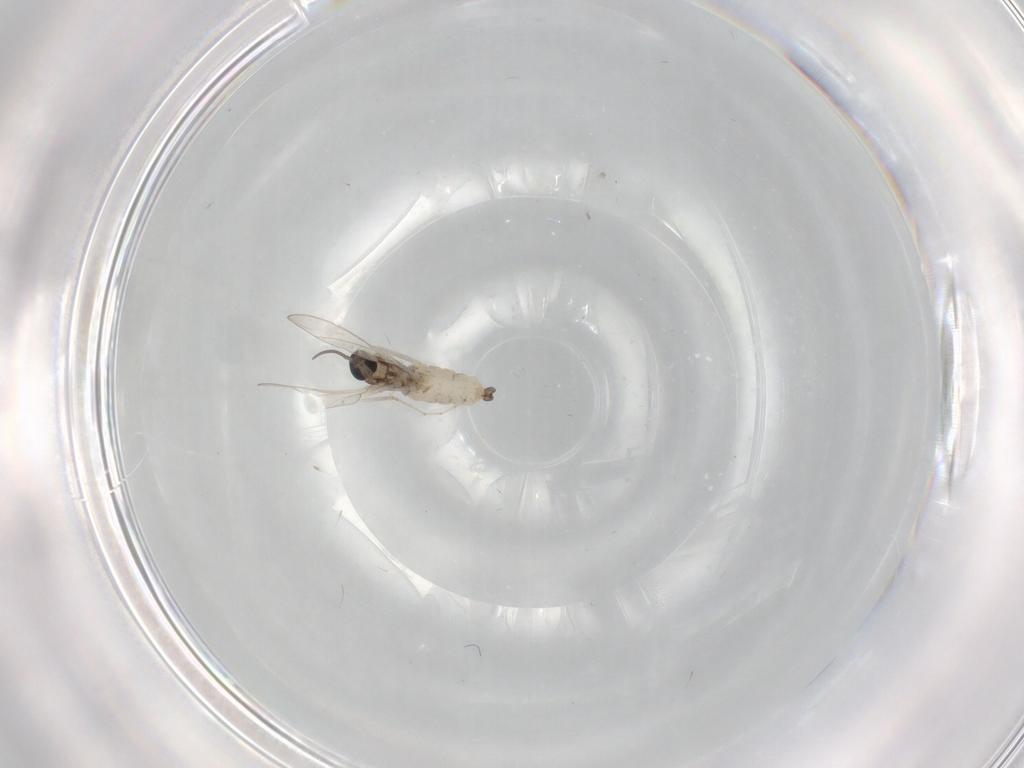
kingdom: Animalia
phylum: Arthropoda
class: Insecta
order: Diptera
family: Cecidomyiidae
